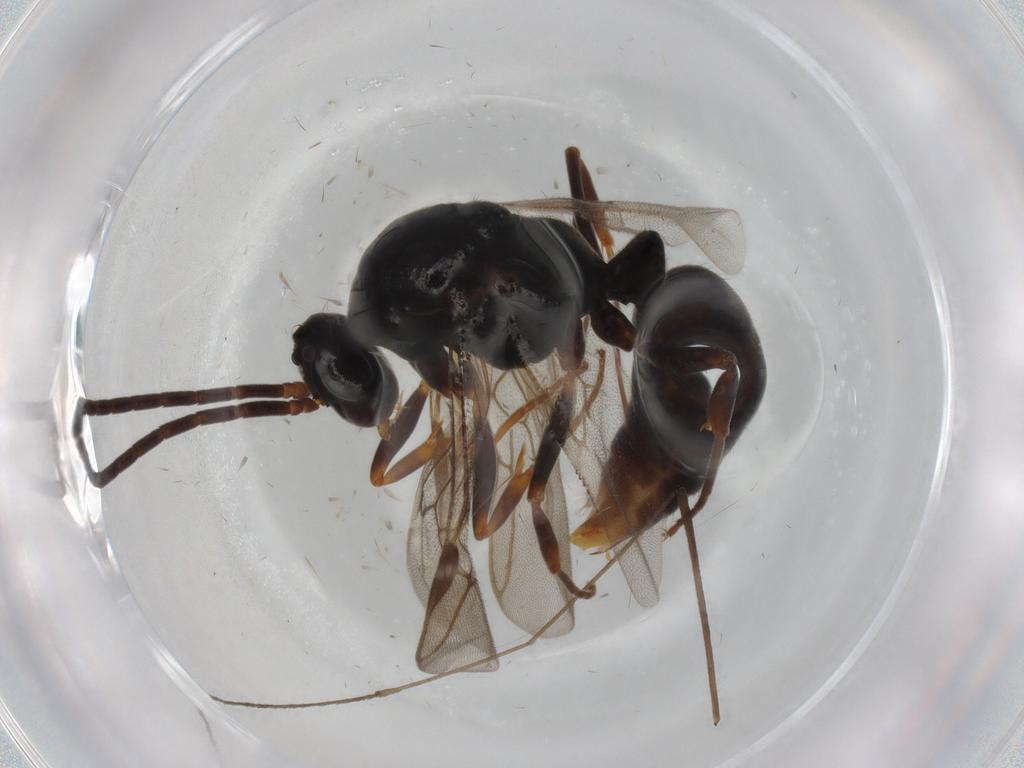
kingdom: Animalia
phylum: Arthropoda
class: Insecta
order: Hymenoptera
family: Formicidae
